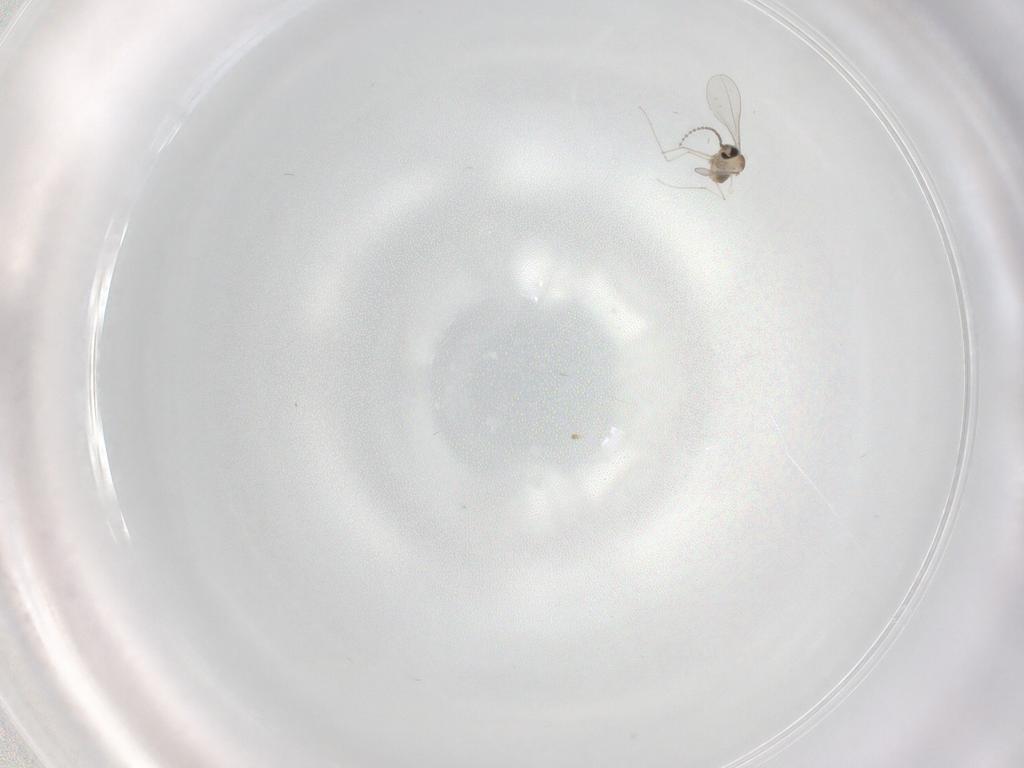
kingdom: Animalia
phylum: Arthropoda
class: Insecta
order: Diptera
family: Cecidomyiidae
